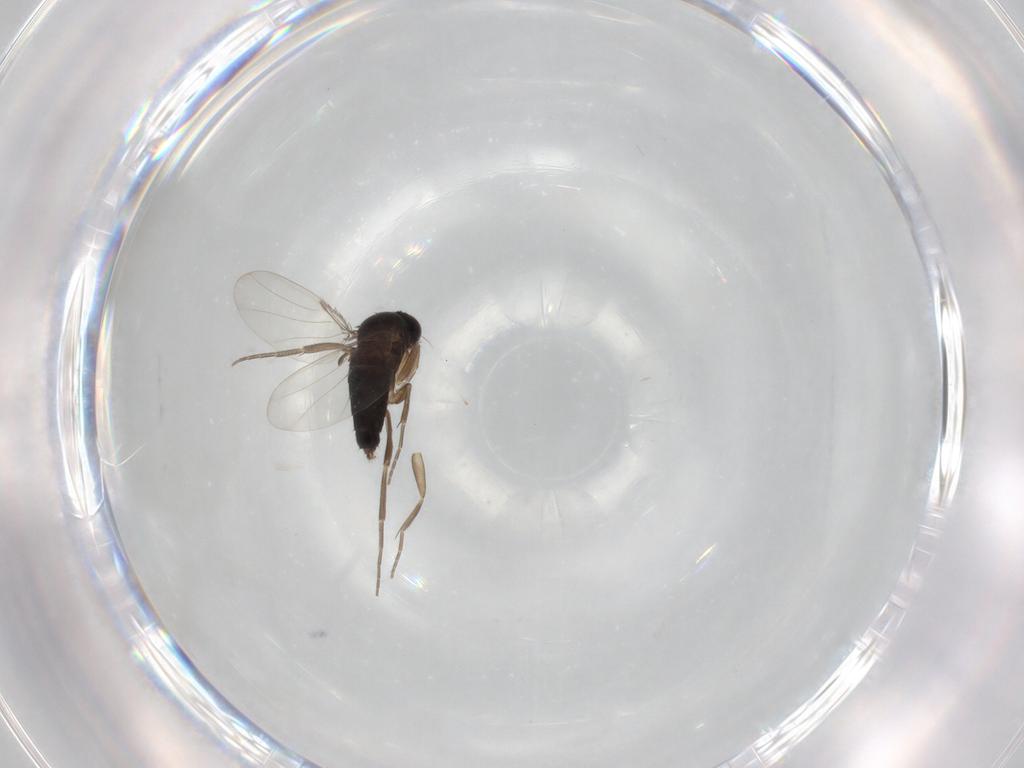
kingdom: Animalia
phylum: Arthropoda
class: Insecta
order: Diptera
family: Phoridae
